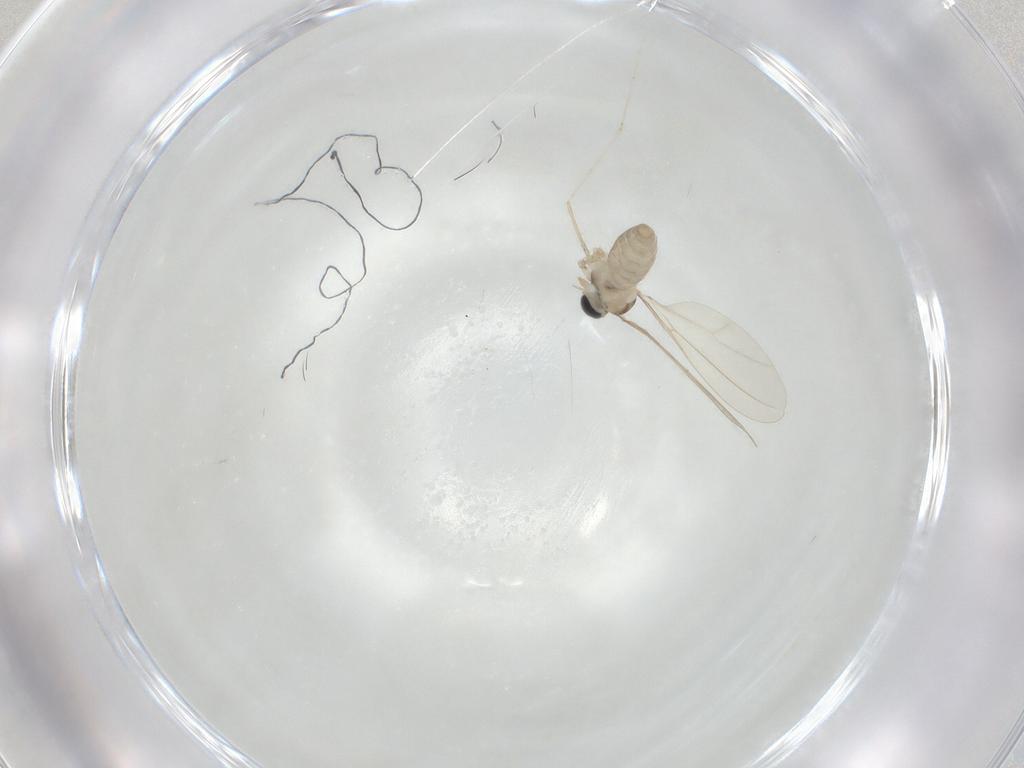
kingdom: Animalia
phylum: Arthropoda
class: Insecta
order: Diptera
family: Cecidomyiidae
